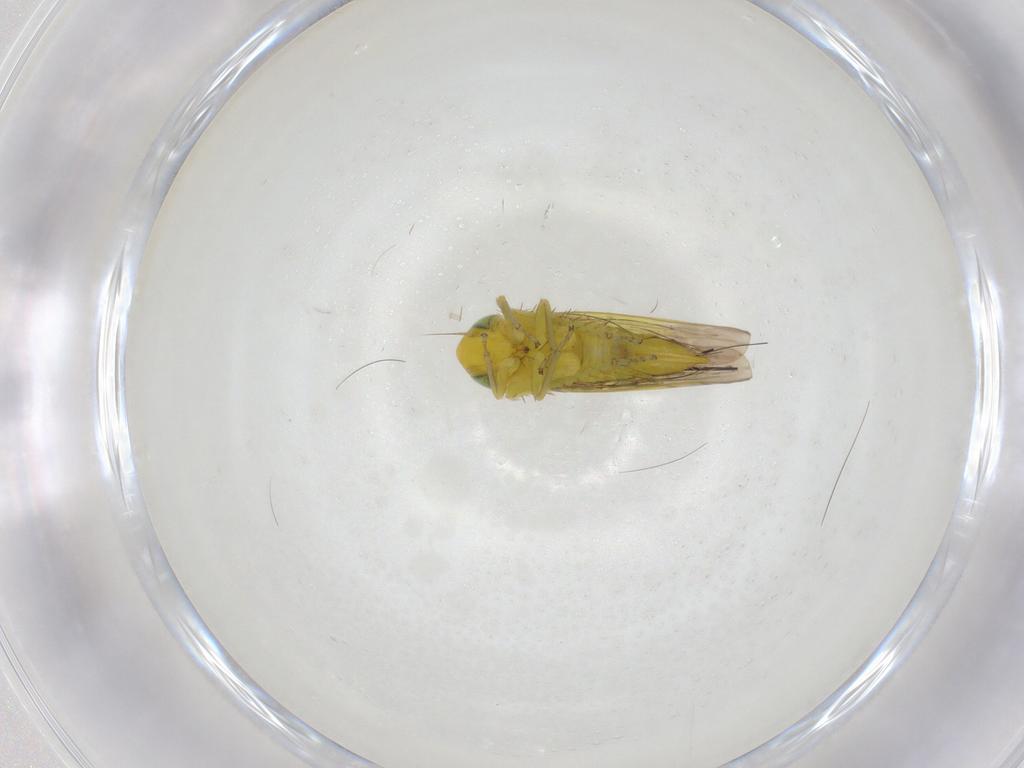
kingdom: Animalia
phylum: Arthropoda
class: Insecta
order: Hemiptera
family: Cicadellidae
